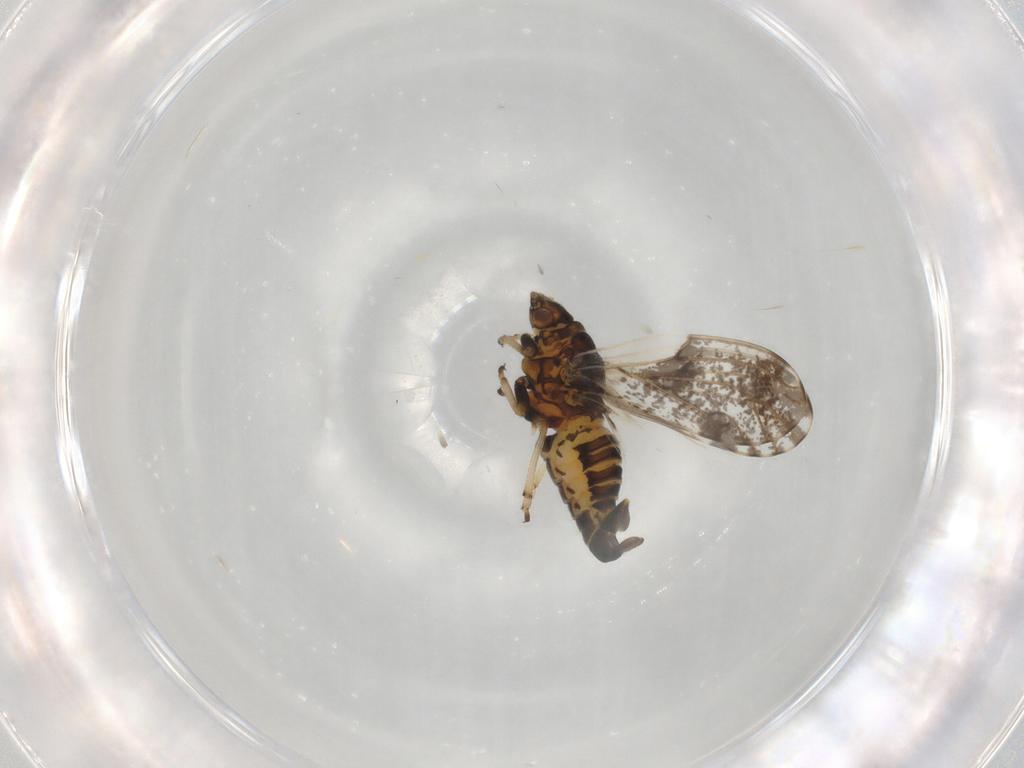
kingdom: Animalia
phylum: Arthropoda
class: Insecta
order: Hemiptera
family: Psylloidea_incertae_sedis
